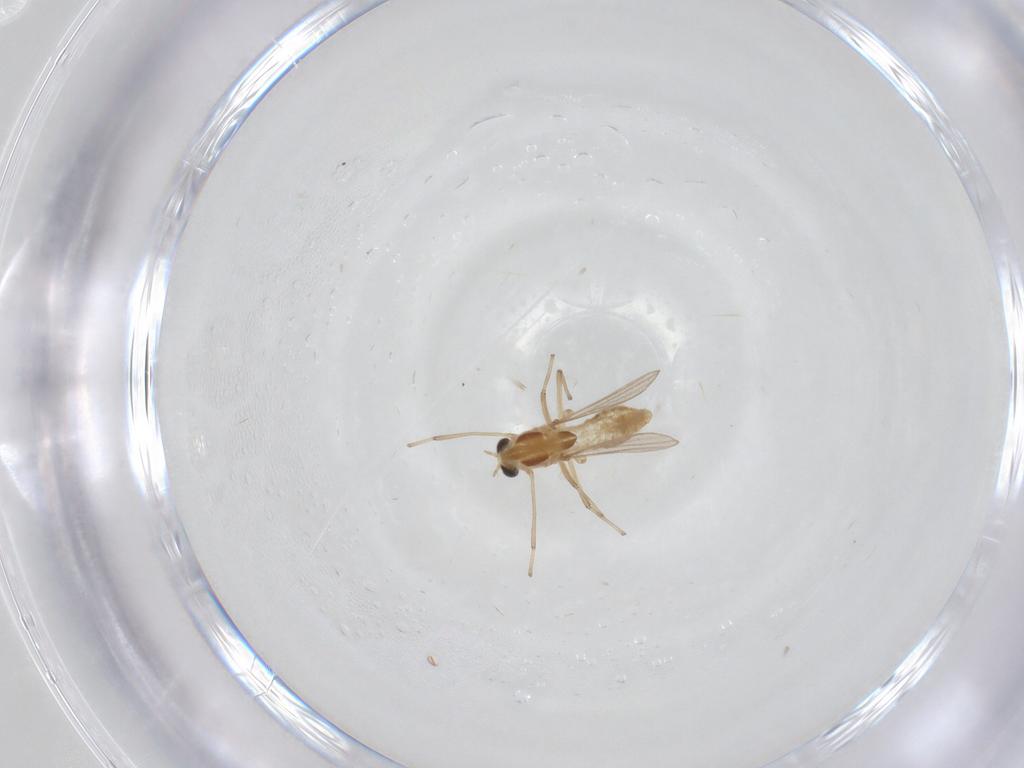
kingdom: Animalia
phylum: Arthropoda
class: Insecta
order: Diptera
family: Chironomidae
